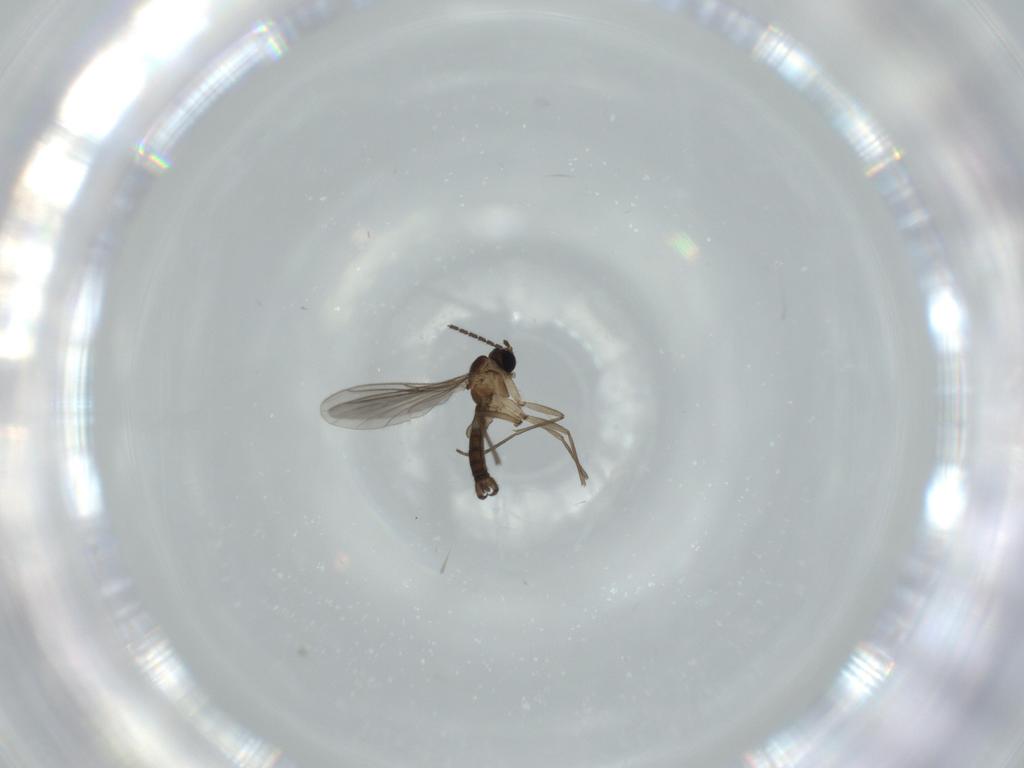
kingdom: Animalia
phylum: Arthropoda
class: Insecta
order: Diptera
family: Sciaridae
